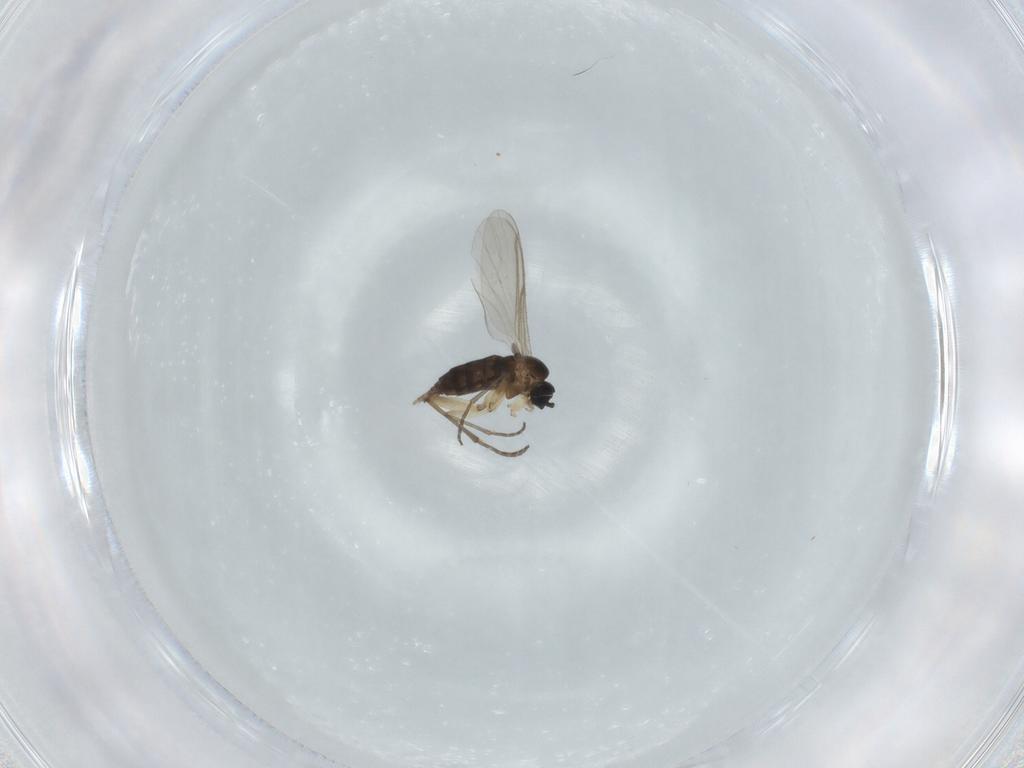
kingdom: Animalia
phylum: Arthropoda
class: Insecta
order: Diptera
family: Sciaridae
